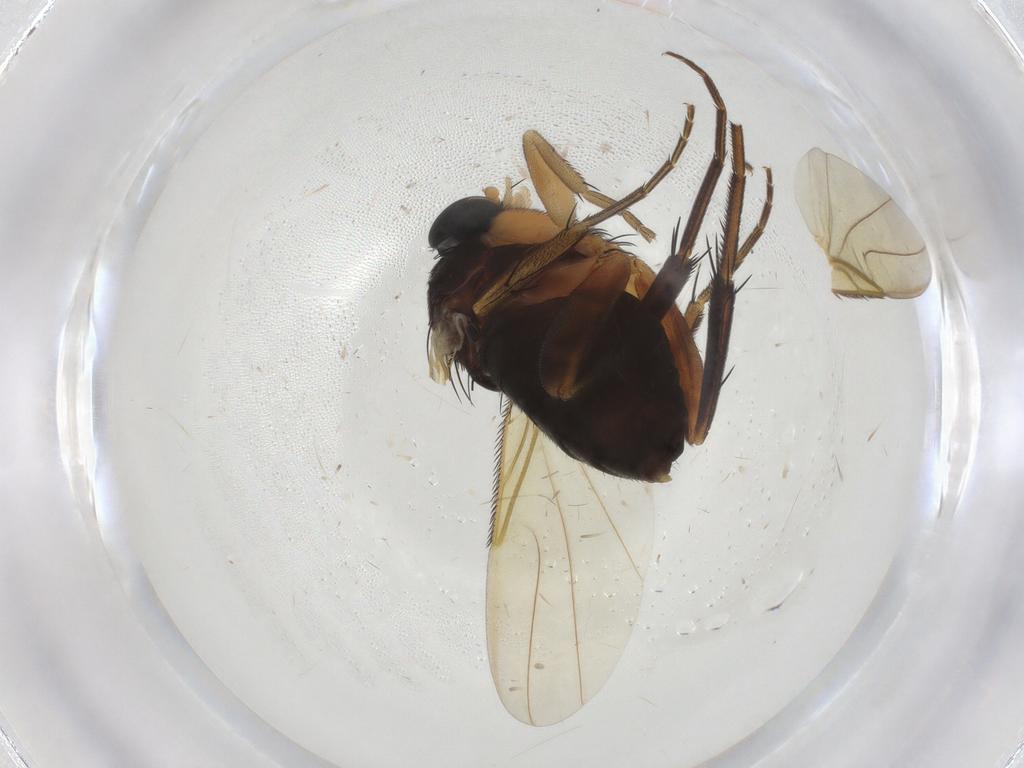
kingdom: Animalia
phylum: Arthropoda
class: Insecta
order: Diptera
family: Phoridae
